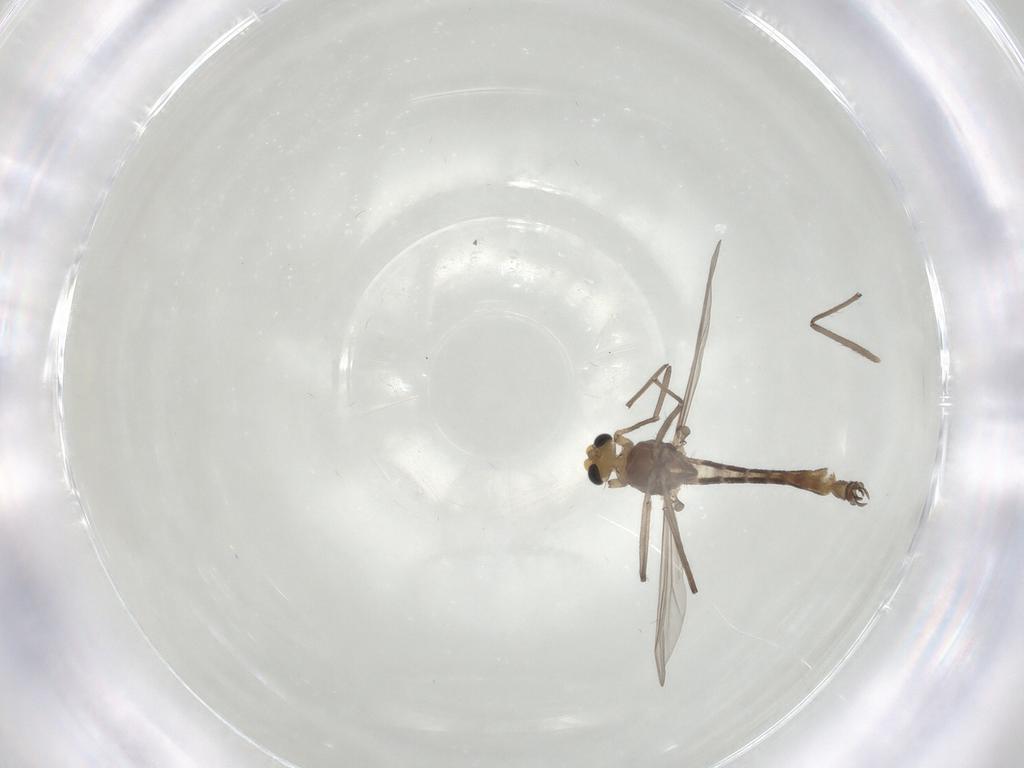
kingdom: Animalia
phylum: Arthropoda
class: Insecta
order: Diptera
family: Chironomidae
